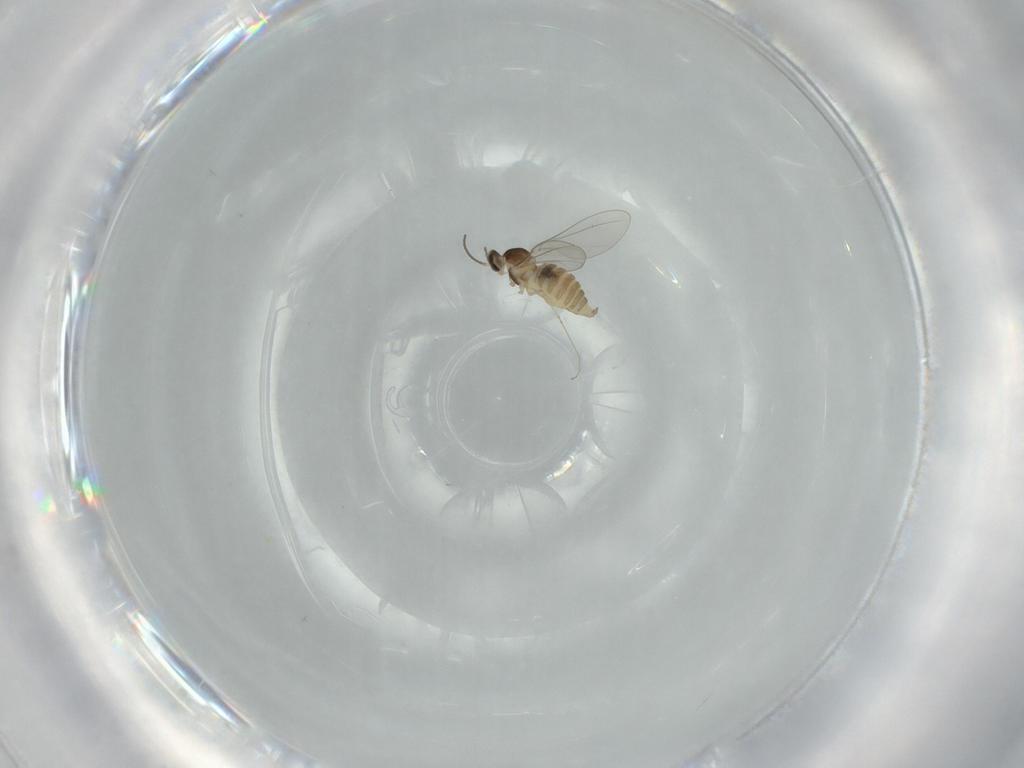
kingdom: Animalia
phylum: Arthropoda
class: Insecta
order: Diptera
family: Cecidomyiidae
